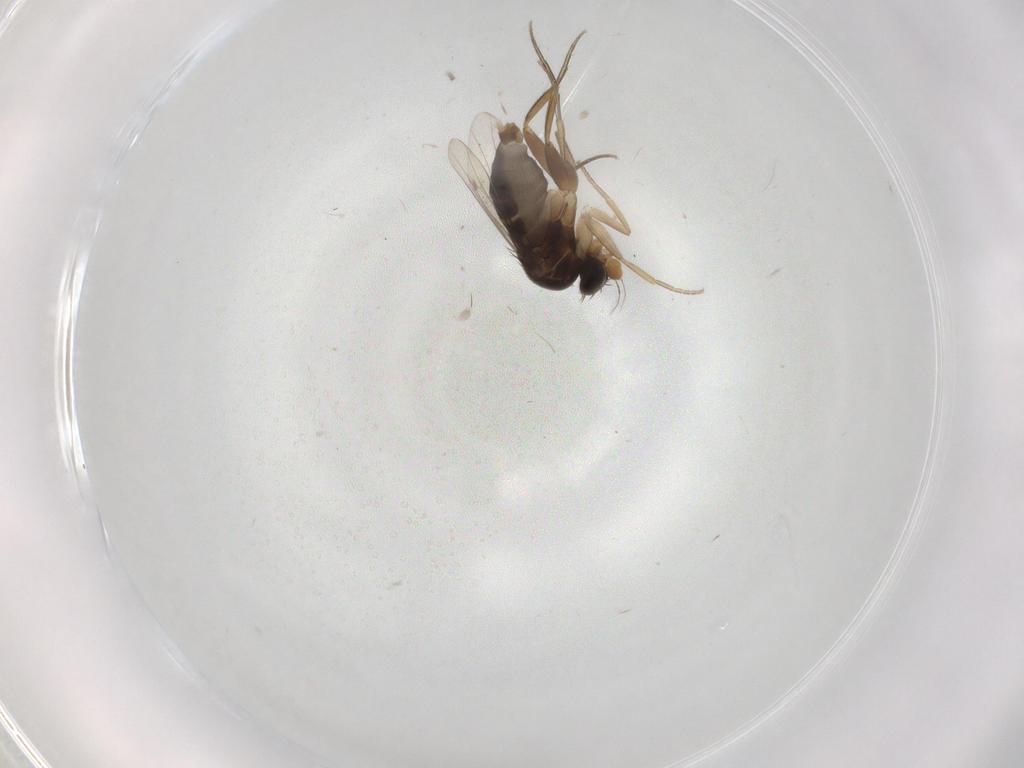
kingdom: Animalia
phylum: Arthropoda
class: Insecta
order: Diptera
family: Phoridae
